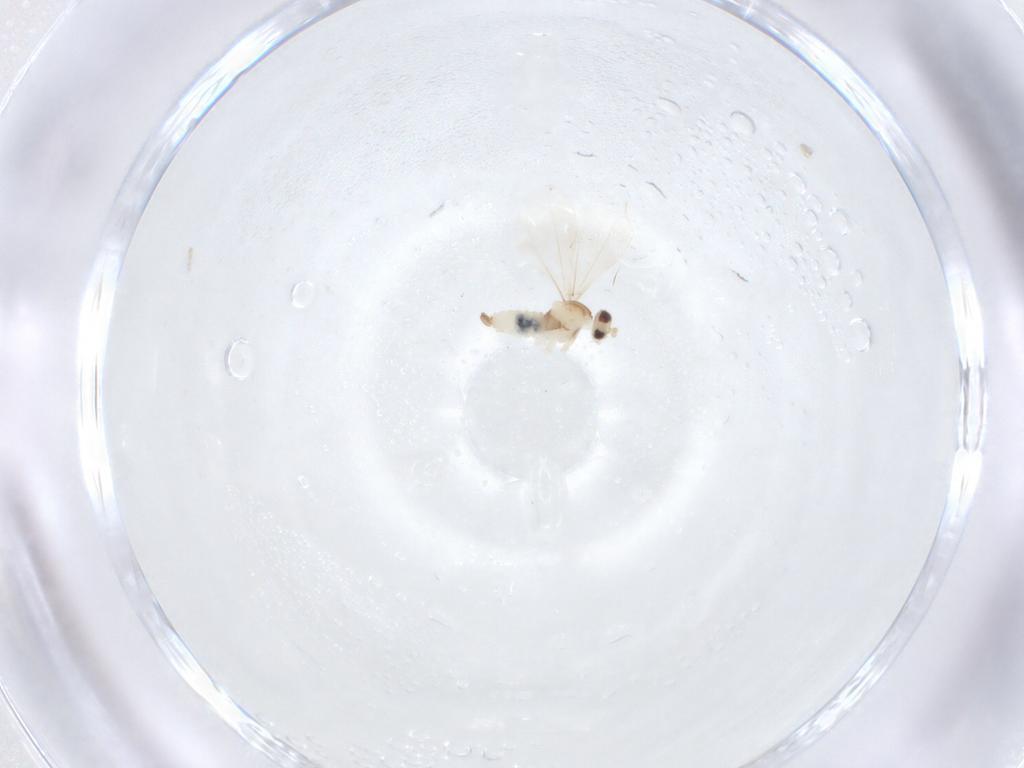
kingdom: Animalia
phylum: Arthropoda
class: Insecta
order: Diptera
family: Cecidomyiidae
